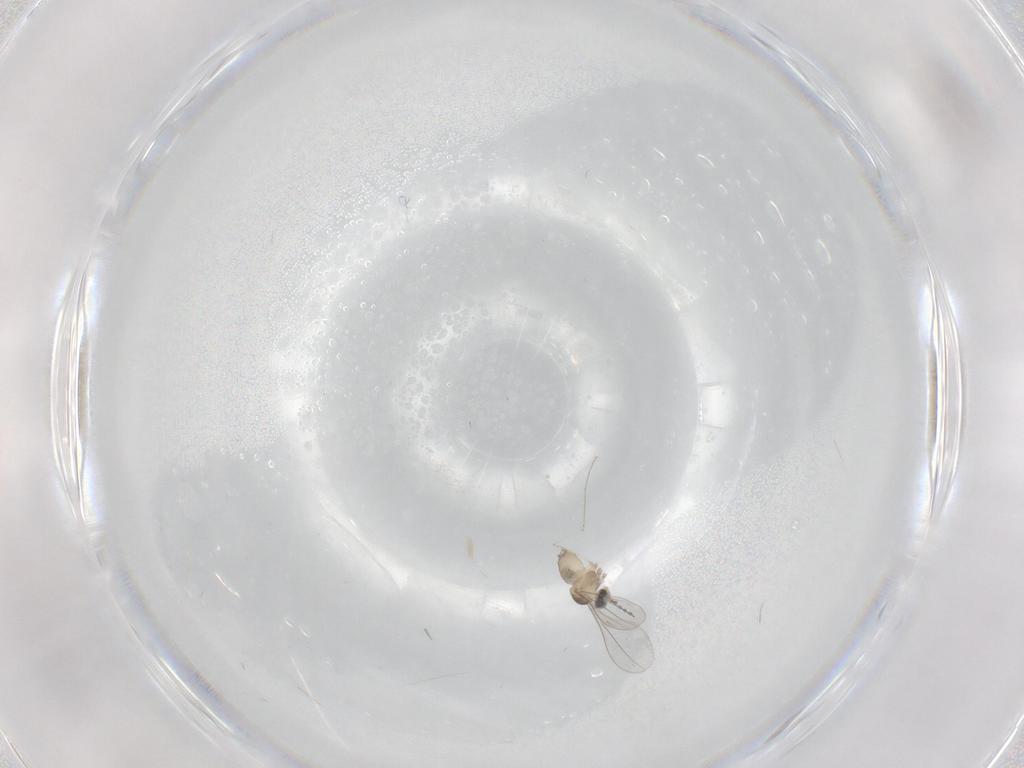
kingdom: Animalia
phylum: Arthropoda
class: Insecta
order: Diptera
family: Cecidomyiidae
